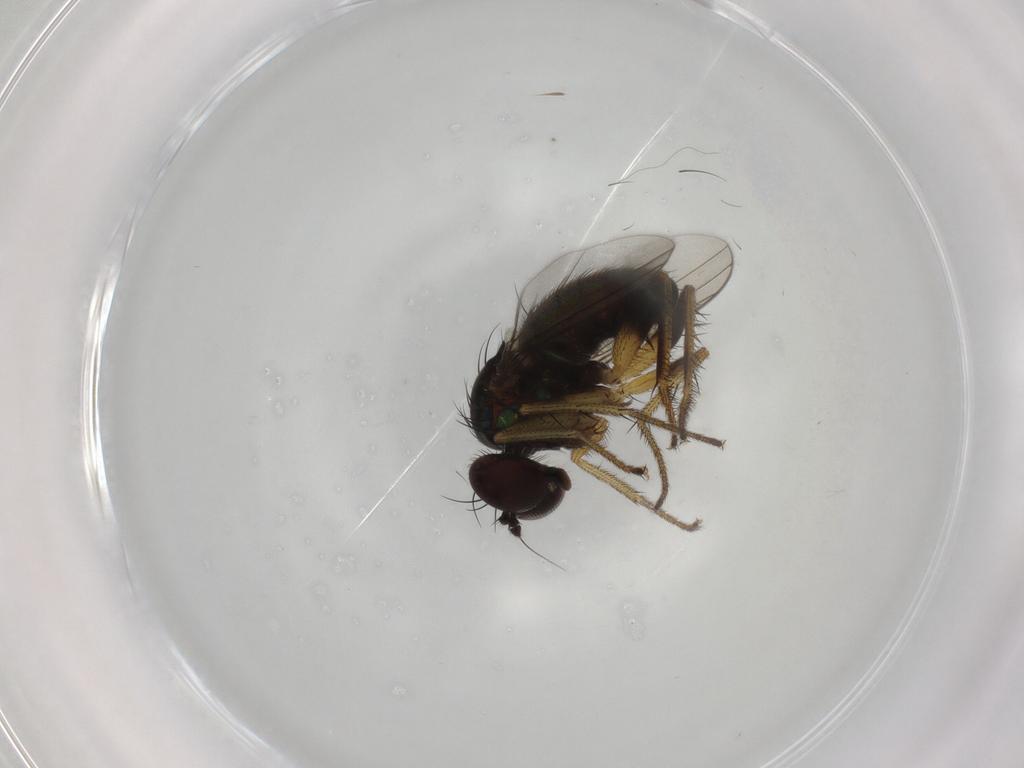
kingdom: Animalia
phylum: Arthropoda
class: Insecta
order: Diptera
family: Dolichopodidae
